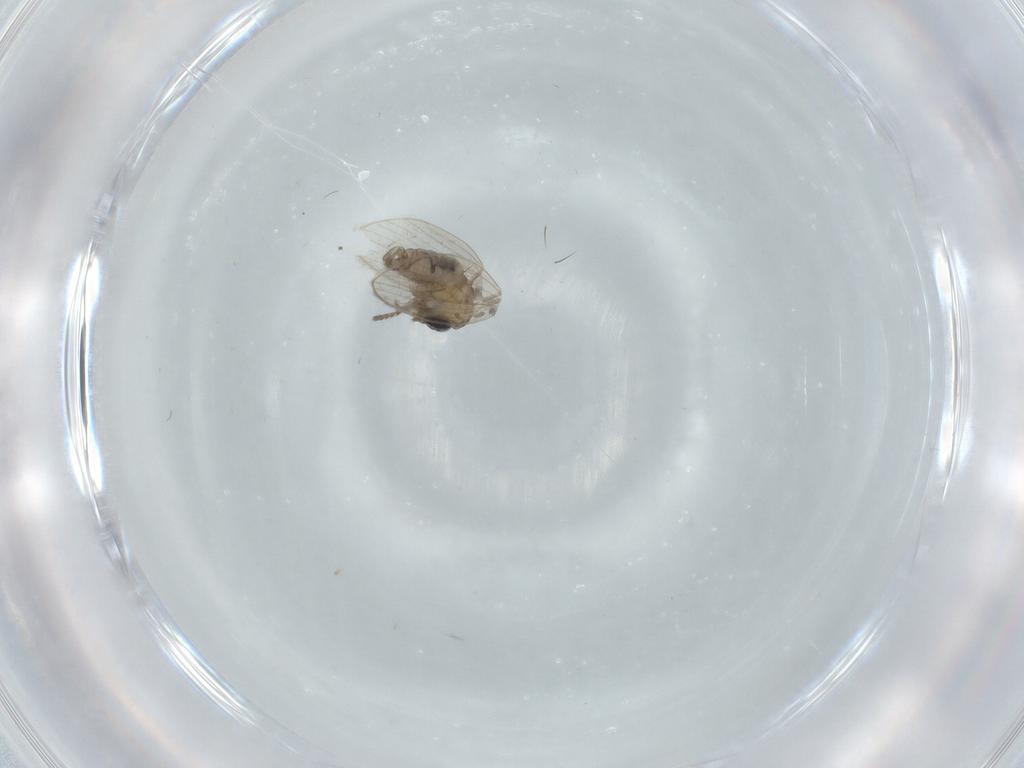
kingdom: Animalia
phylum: Arthropoda
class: Insecta
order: Diptera
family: Psychodidae
